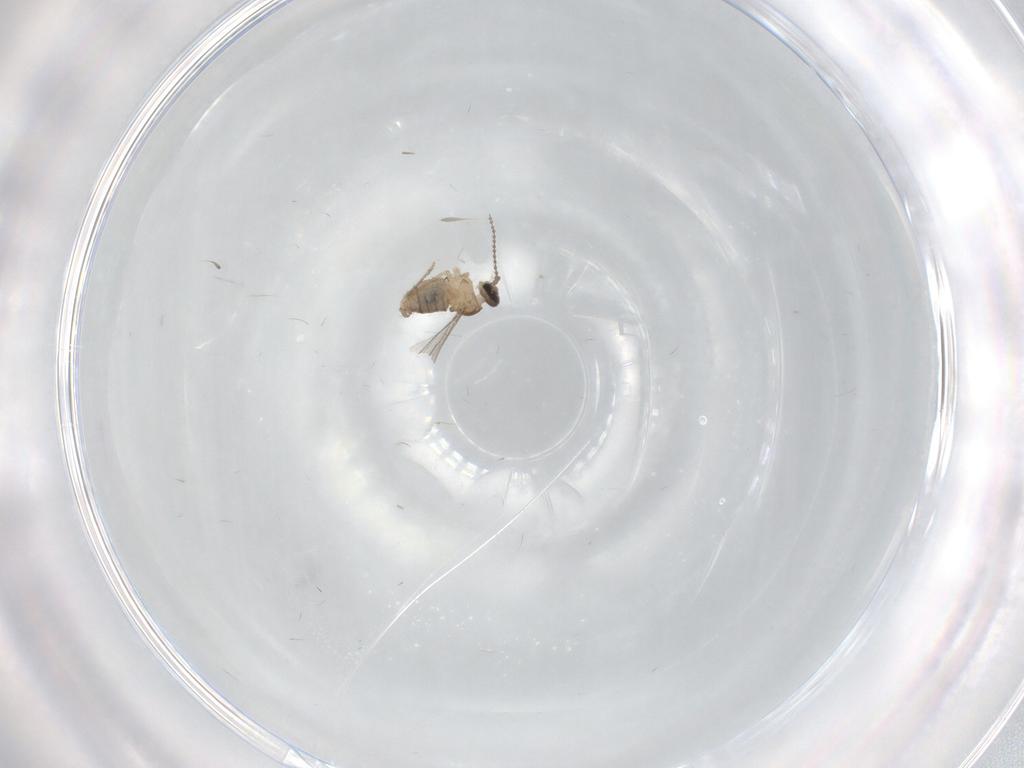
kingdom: Animalia
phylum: Arthropoda
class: Insecta
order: Diptera
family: Cecidomyiidae
